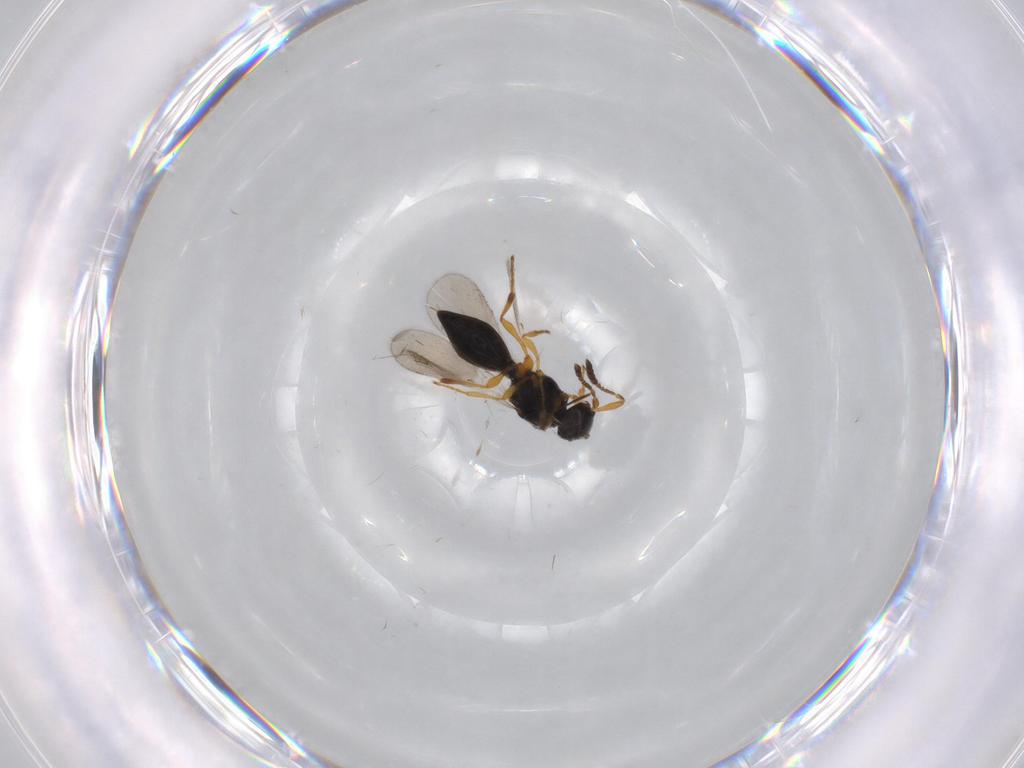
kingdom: Animalia
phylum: Arthropoda
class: Insecta
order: Hymenoptera
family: Platygastridae
